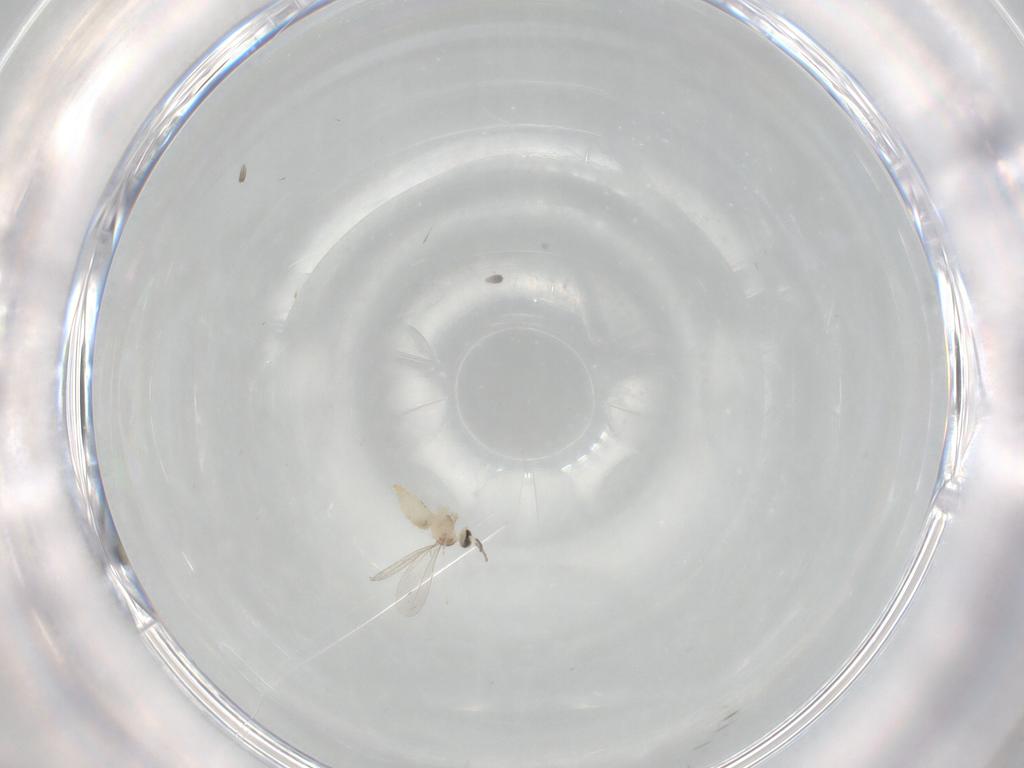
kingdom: Animalia
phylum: Arthropoda
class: Insecta
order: Diptera
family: Cecidomyiidae
